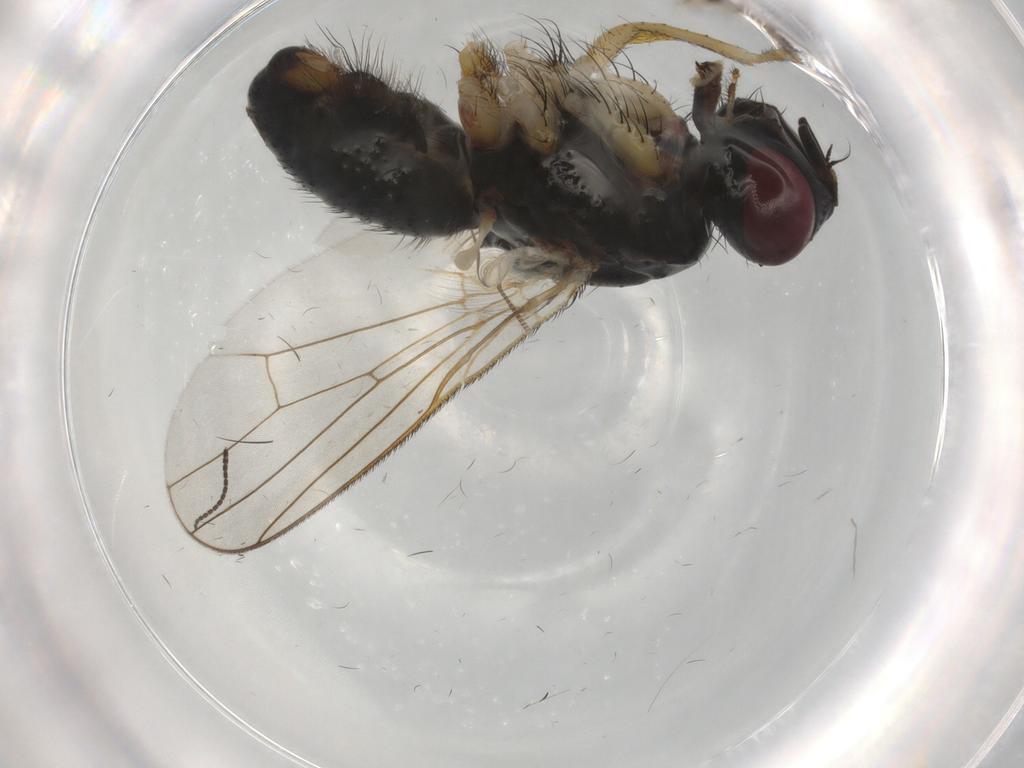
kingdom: Animalia
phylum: Arthropoda
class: Insecta
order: Diptera
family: Muscidae
